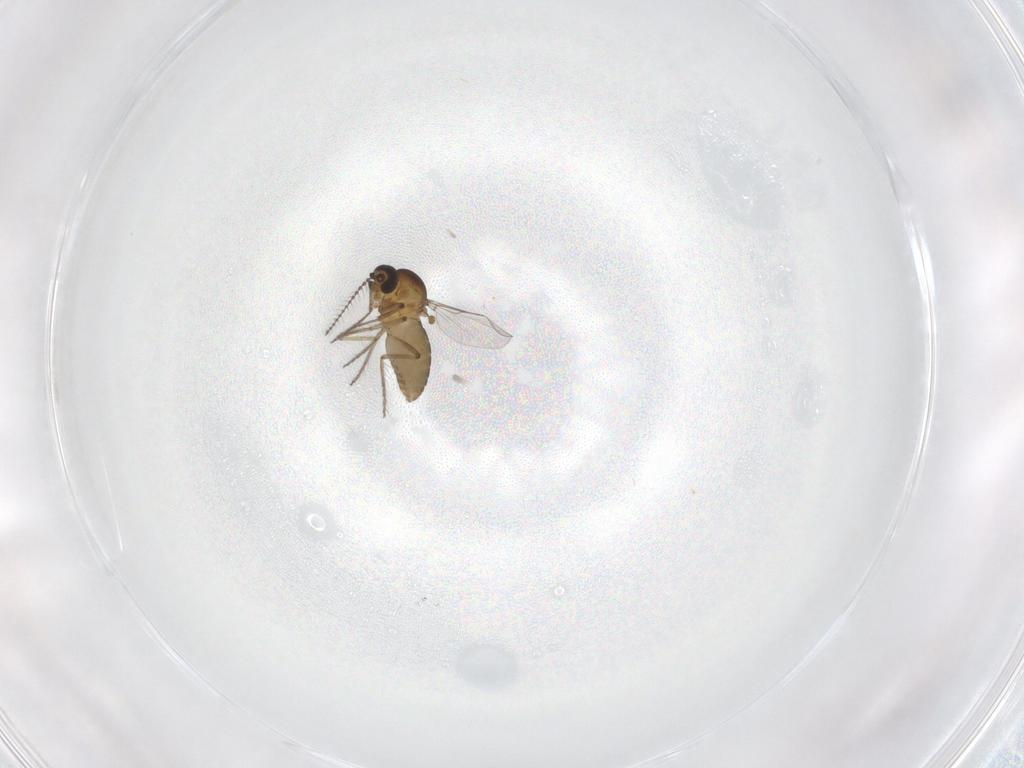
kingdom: Animalia
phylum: Arthropoda
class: Insecta
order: Diptera
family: Ceratopogonidae
